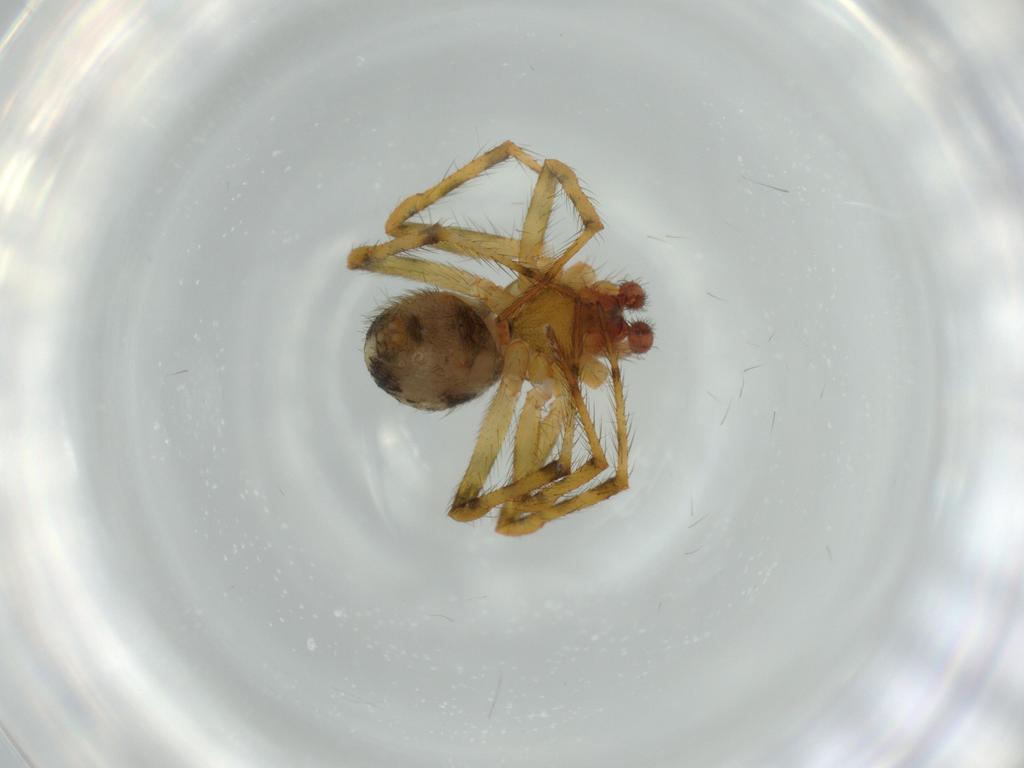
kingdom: Animalia
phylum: Arthropoda
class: Arachnida
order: Araneae
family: Theridiidae
